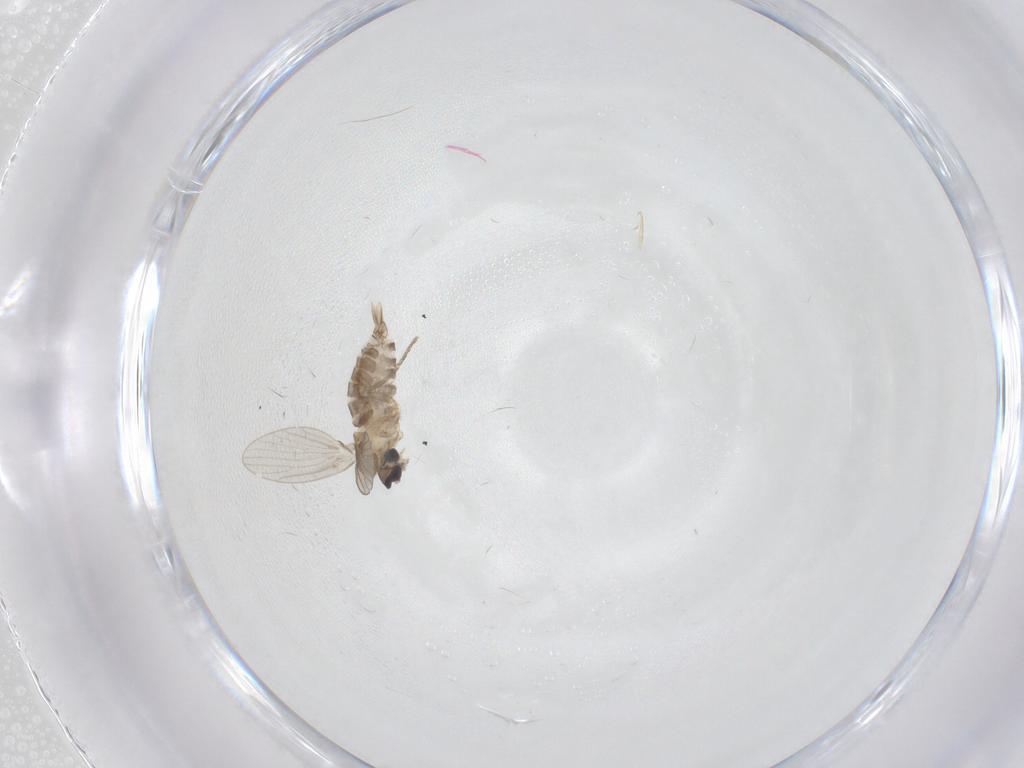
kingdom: Animalia
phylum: Arthropoda
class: Insecta
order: Diptera
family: Ceratopogonidae
